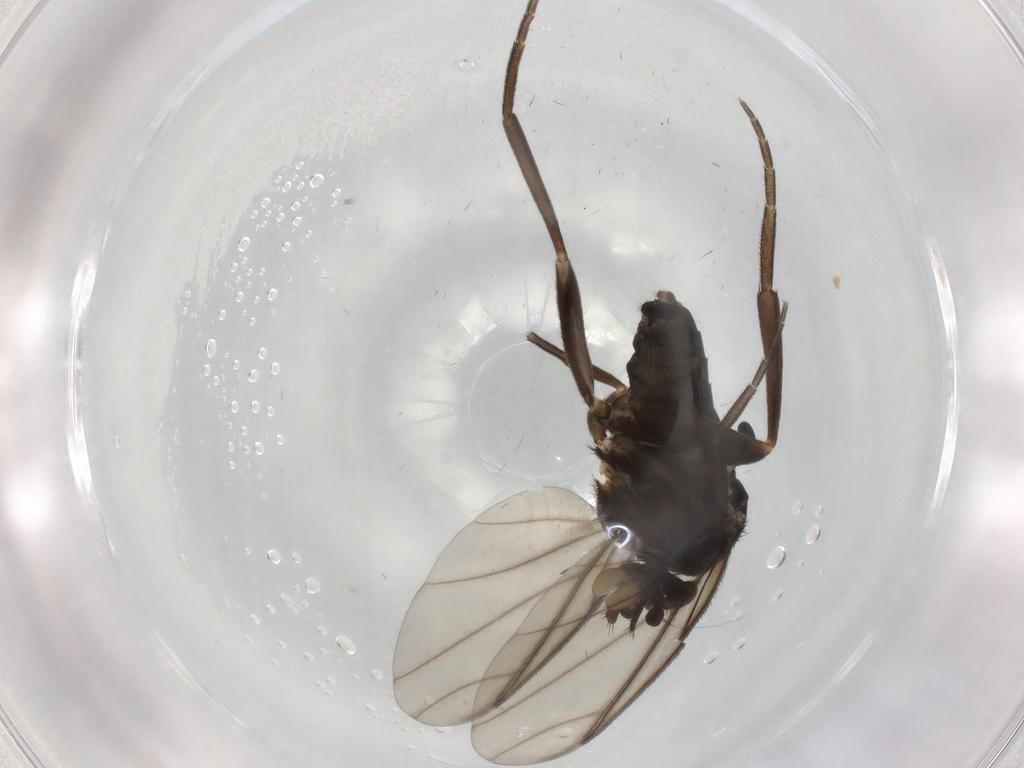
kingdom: Animalia
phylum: Arthropoda
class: Insecta
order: Diptera
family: Phoridae
